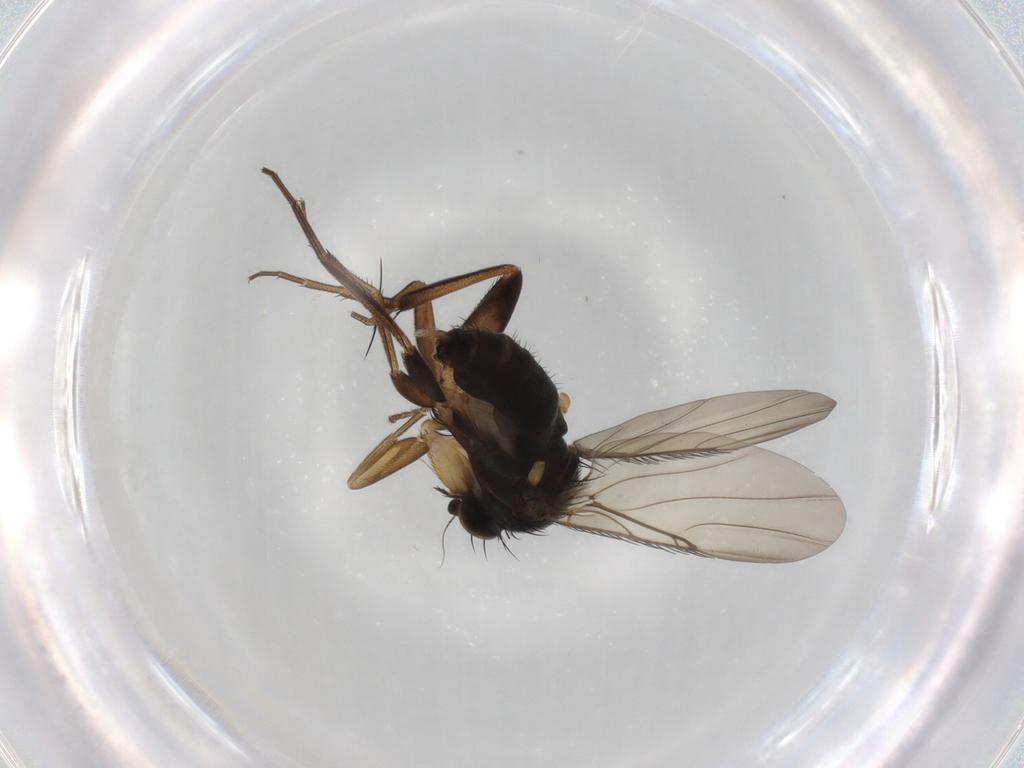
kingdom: Animalia
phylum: Arthropoda
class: Insecta
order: Diptera
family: Phoridae
